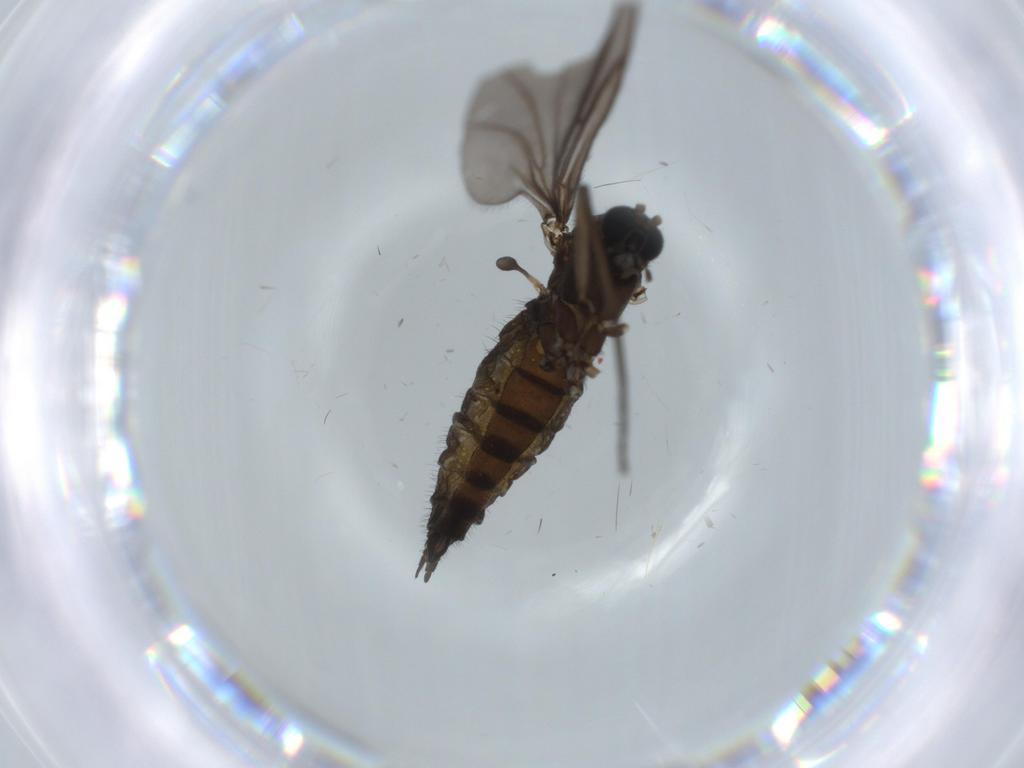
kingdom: Animalia
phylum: Arthropoda
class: Insecta
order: Diptera
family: Sciaridae
